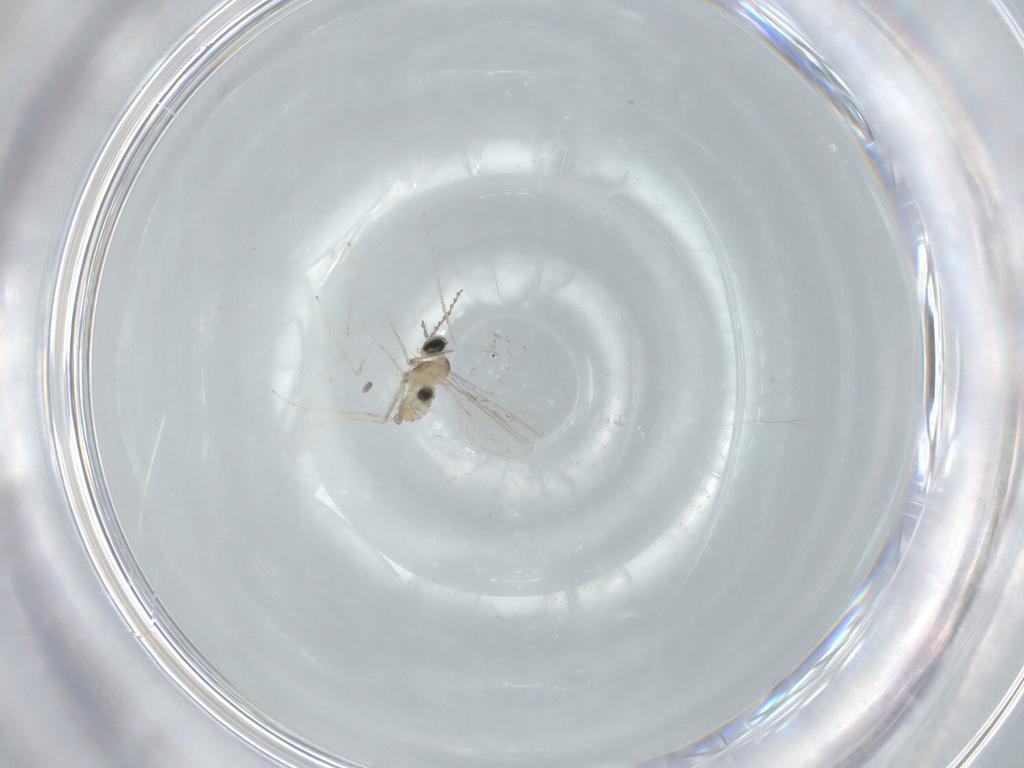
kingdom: Animalia
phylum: Arthropoda
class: Insecta
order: Diptera
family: Cecidomyiidae
